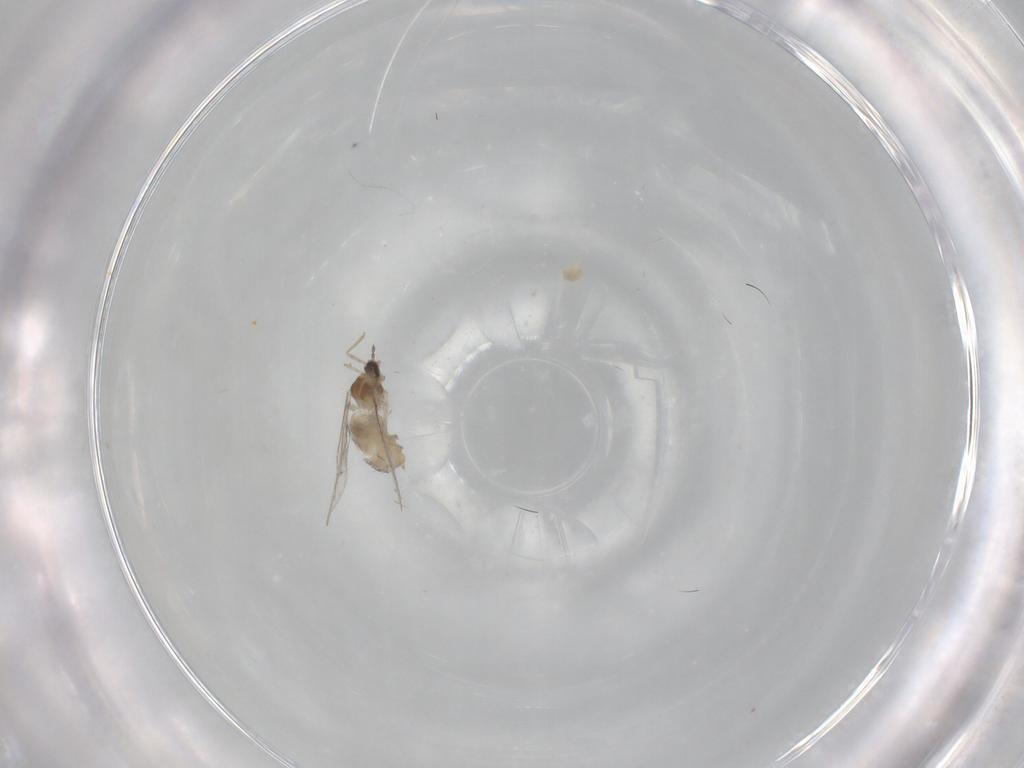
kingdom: Animalia
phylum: Arthropoda
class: Insecta
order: Diptera
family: Cecidomyiidae
